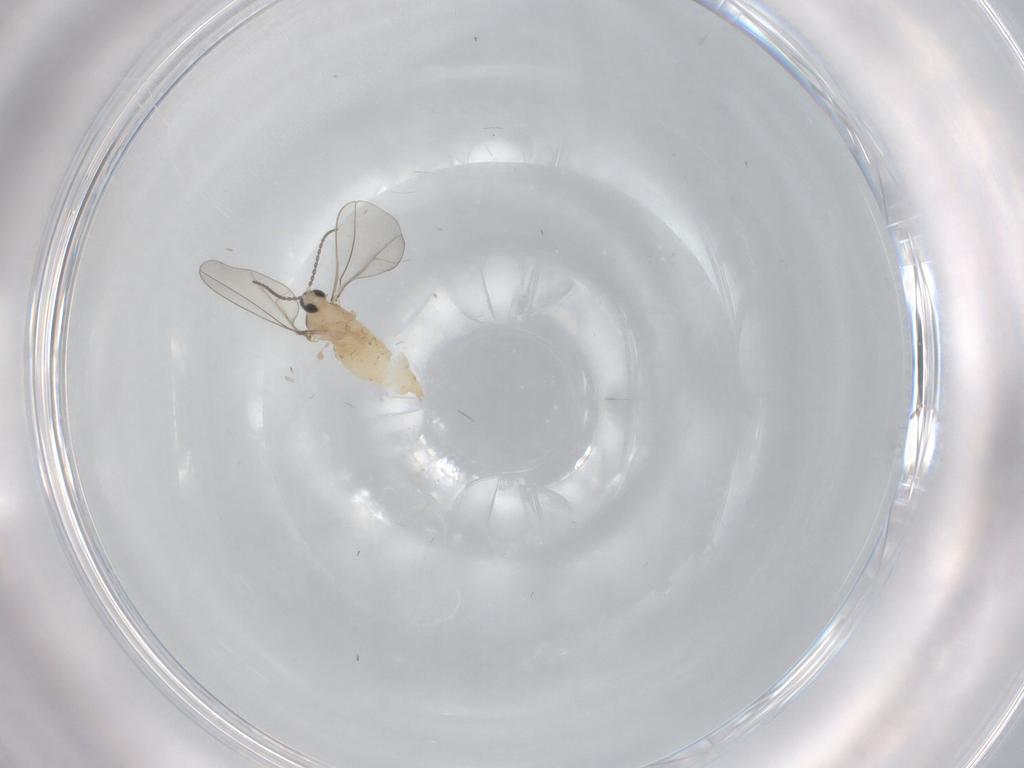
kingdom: Animalia
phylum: Arthropoda
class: Insecta
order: Diptera
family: Cecidomyiidae
